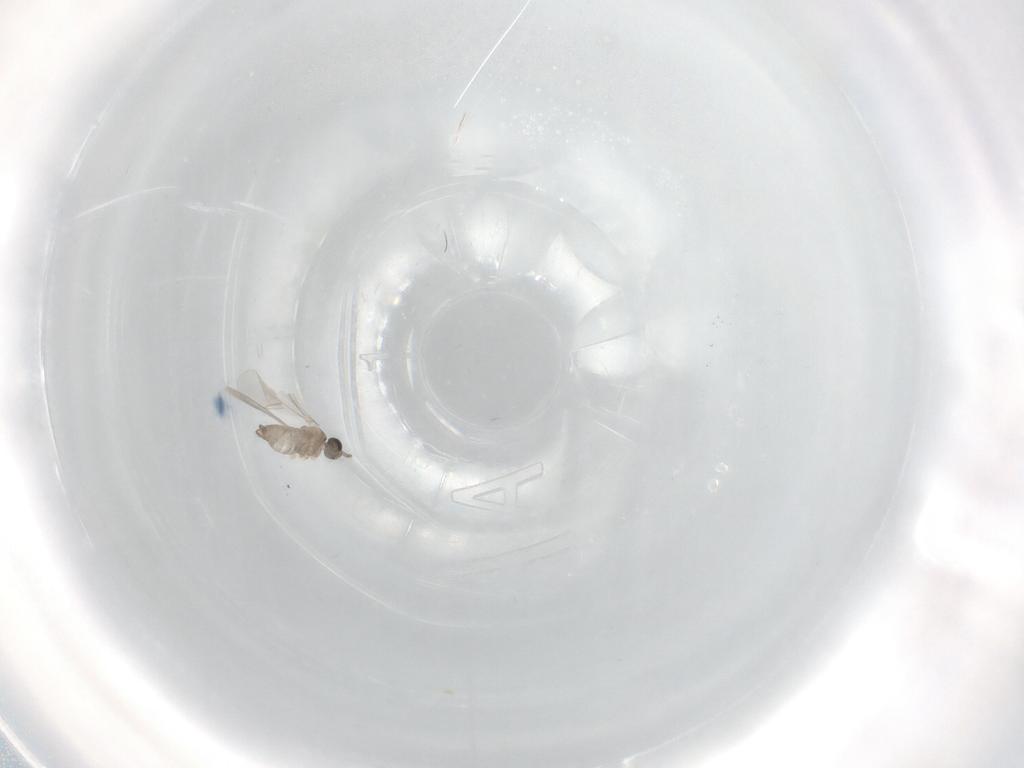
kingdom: Animalia
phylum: Arthropoda
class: Insecta
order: Diptera
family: Cecidomyiidae
